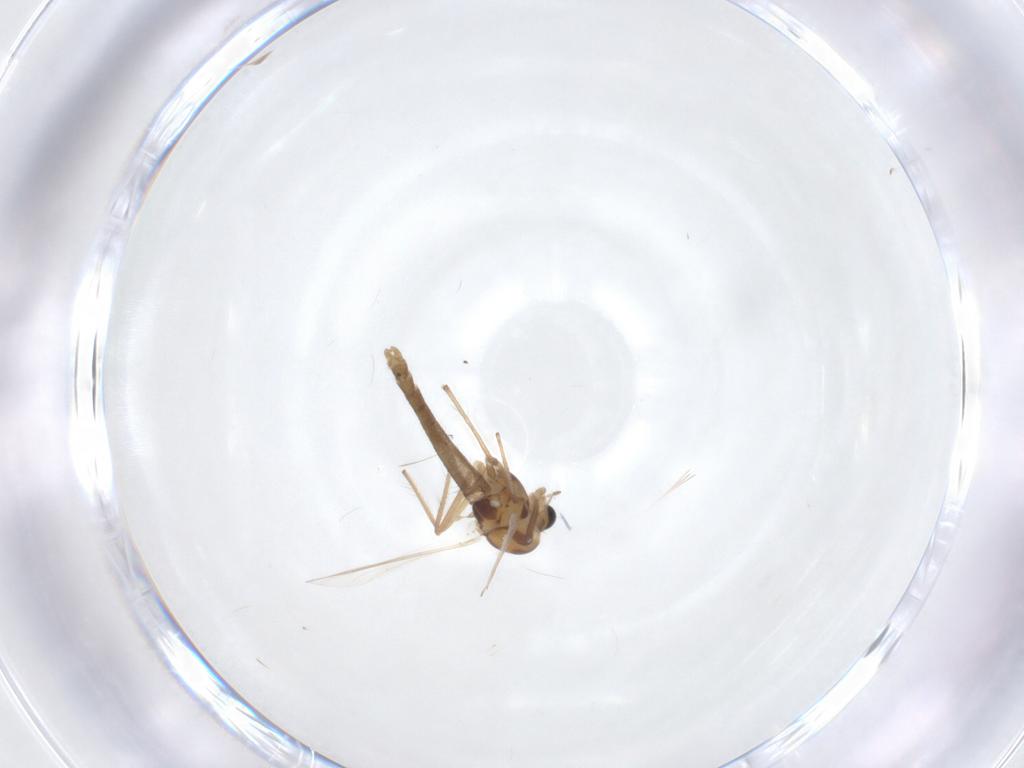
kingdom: Animalia
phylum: Arthropoda
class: Insecta
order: Diptera
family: Chironomidae
